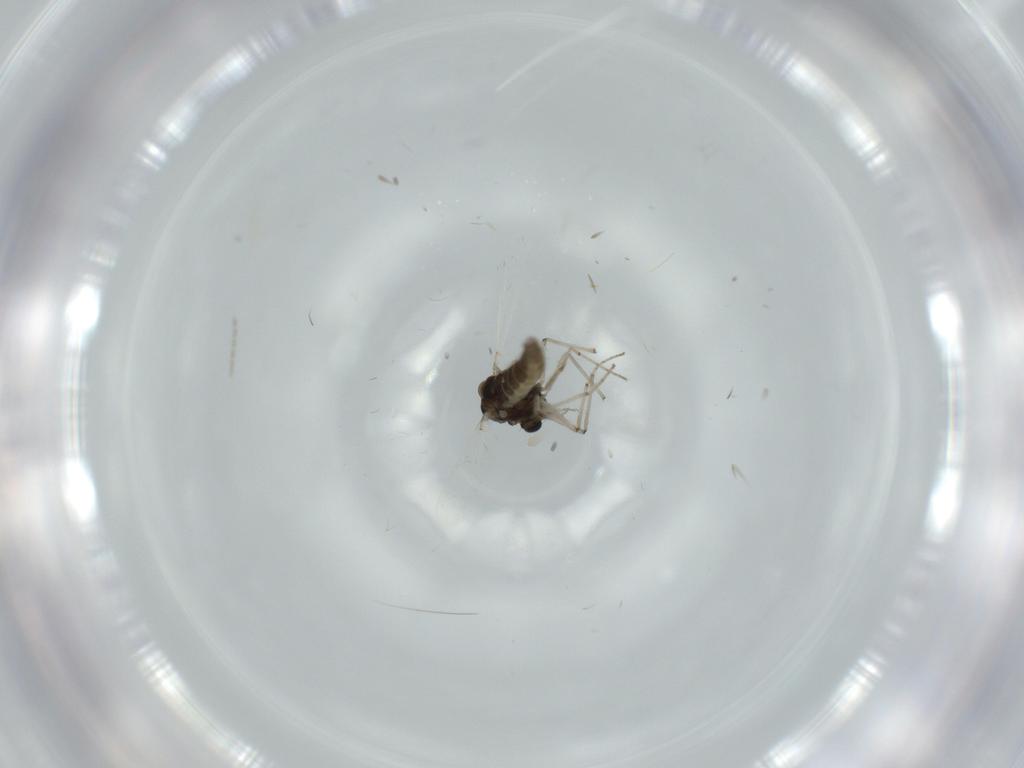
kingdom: Animalia
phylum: Arthropoda
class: Insecta
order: Diptera
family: Chironomidae
